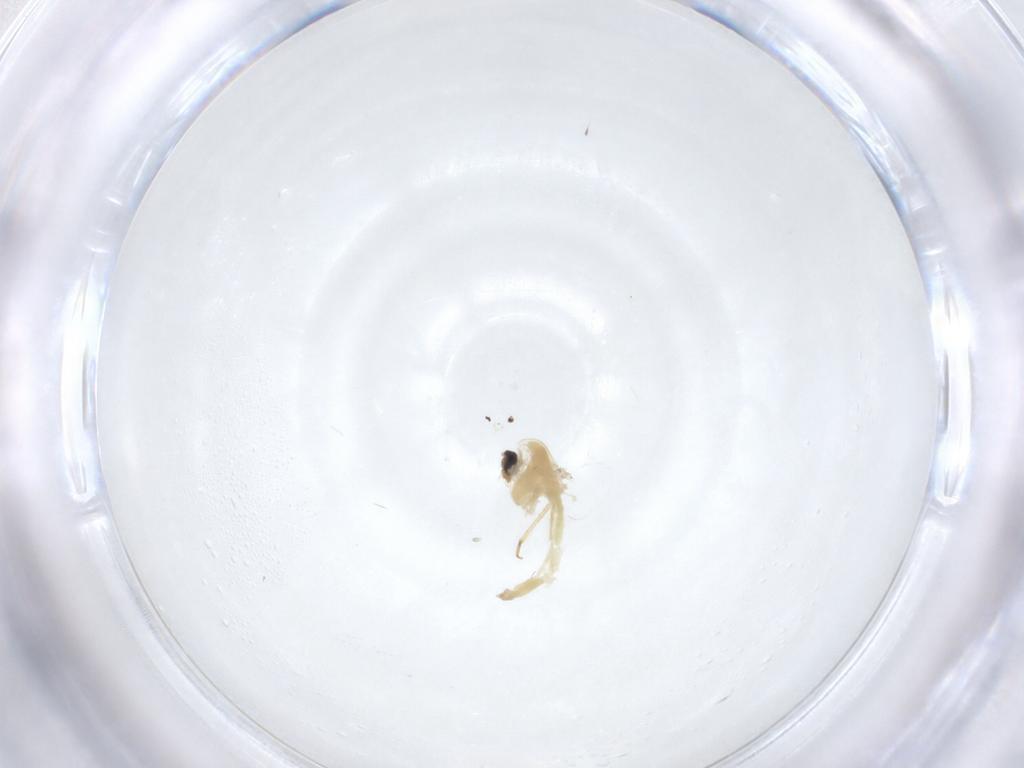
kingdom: Animalia
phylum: Arthropoda
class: Insecta
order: Diptera
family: Chironomidae
